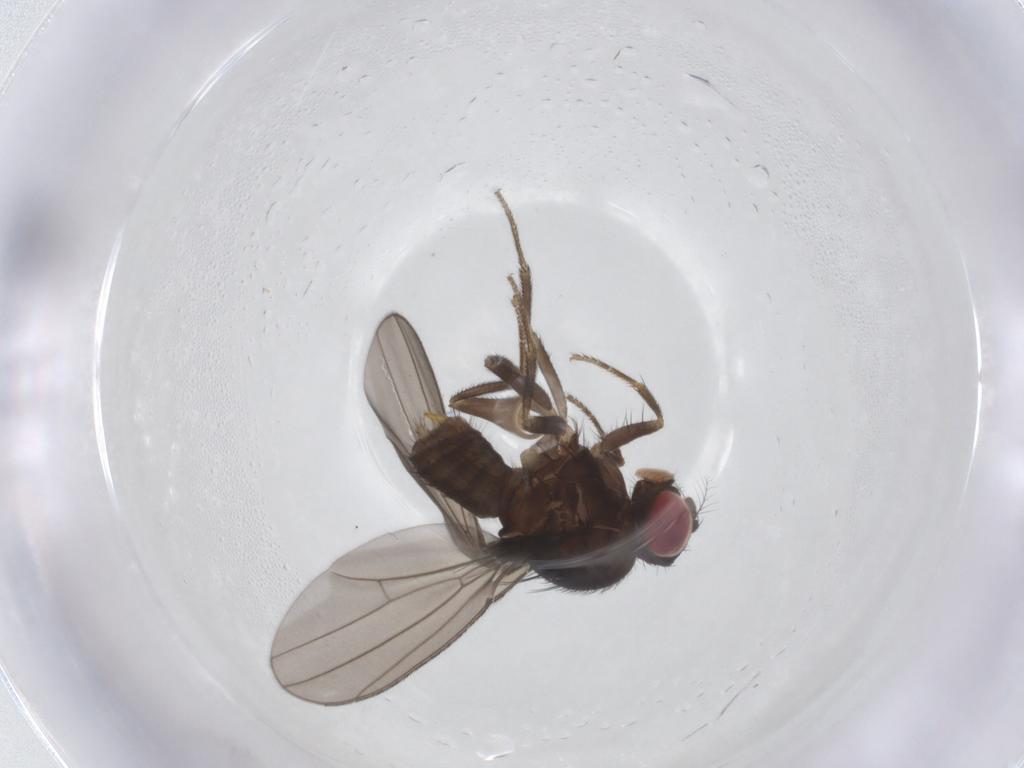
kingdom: Animalia
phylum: Arthropoda
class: Insecta
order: Diptera
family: Drosophilidae
